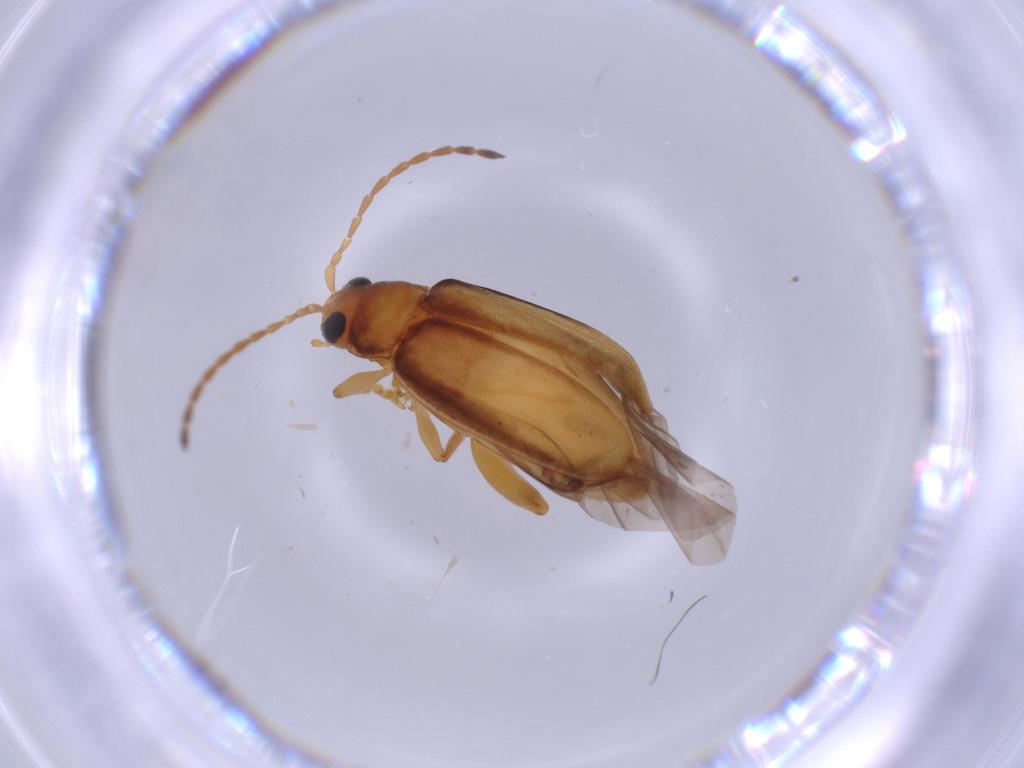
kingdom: Animalia
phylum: Arthropoda
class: Insecta
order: Coleoptera
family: Chrysomelidae
